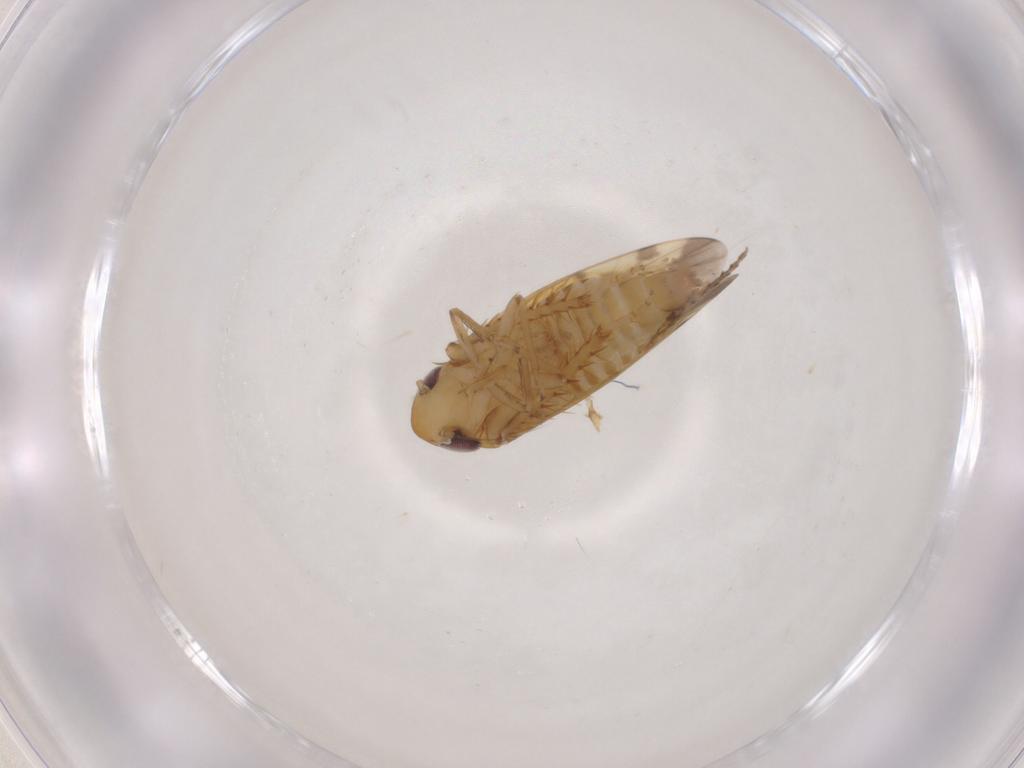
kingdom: Animalia
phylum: Arthropoda
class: Insecta
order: Hemiptera
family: Cicadellidae
